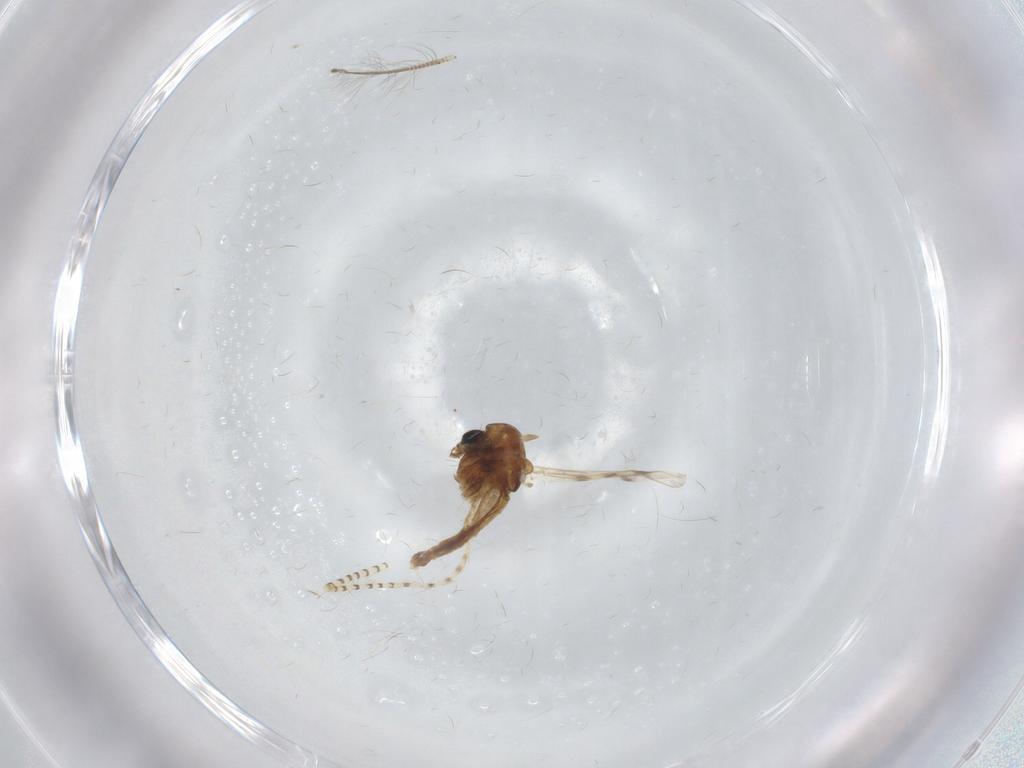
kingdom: Animalia
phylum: Arthropoda
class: Insecta
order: Diptera
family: Chironomidae
